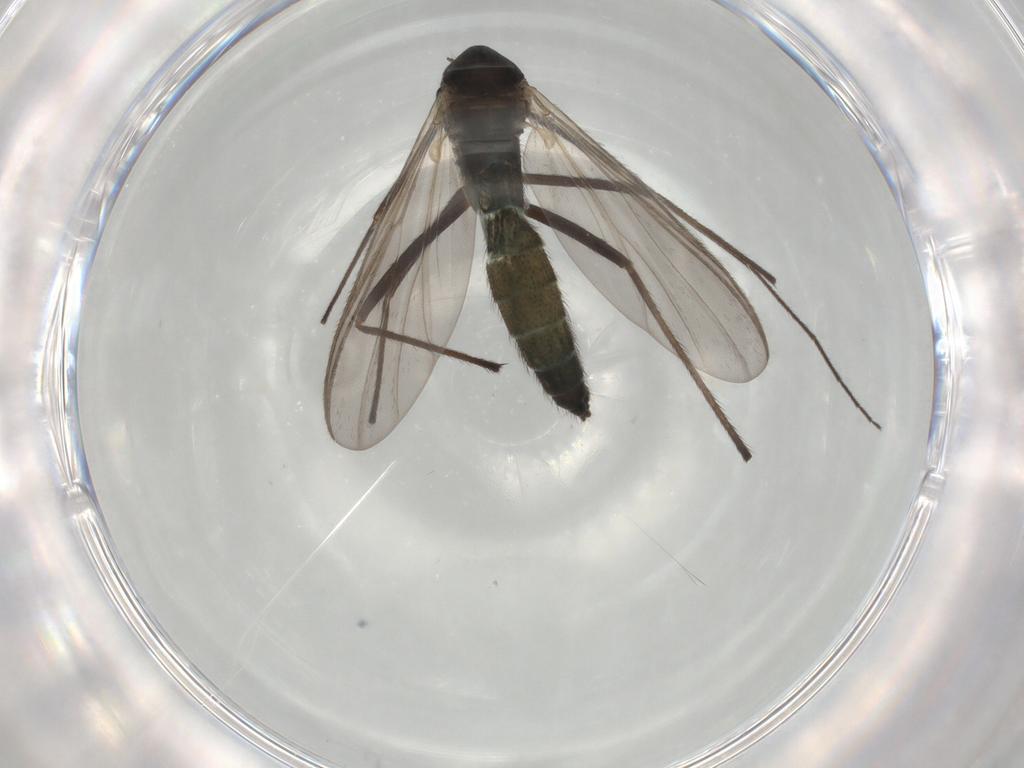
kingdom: Animalia
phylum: Arthropoda
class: Insecta
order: Diptera
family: Chironomidae
